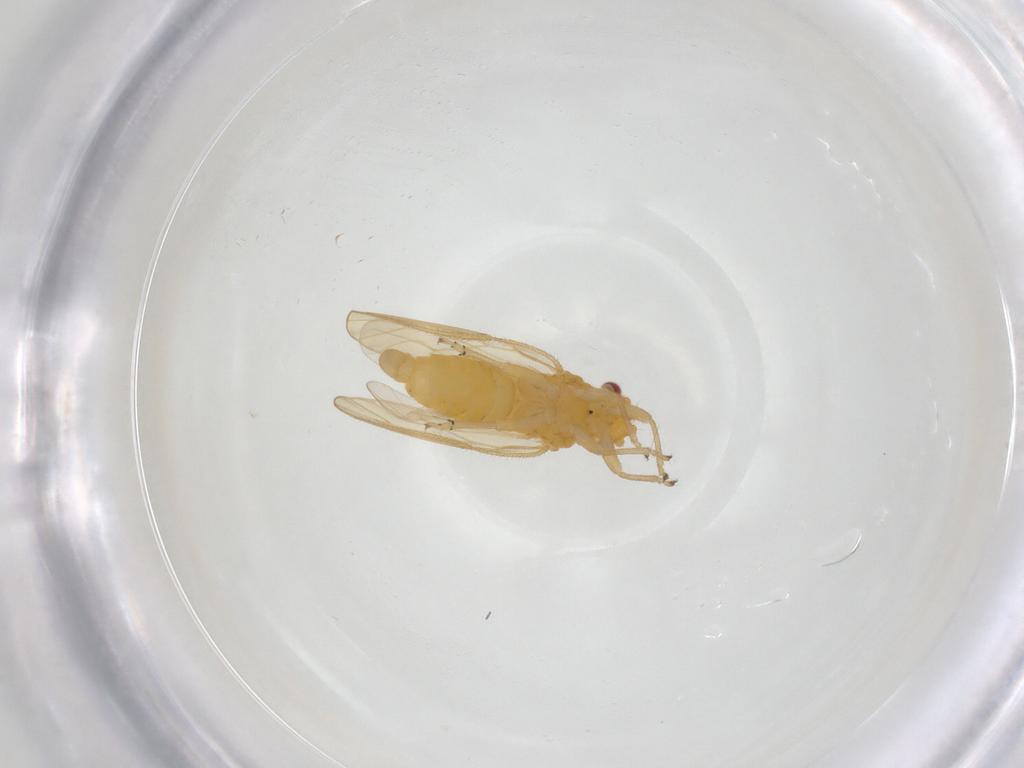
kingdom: Animalia
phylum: Arthropoda
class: Insecta
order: Hemiptera
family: Psyllidae
